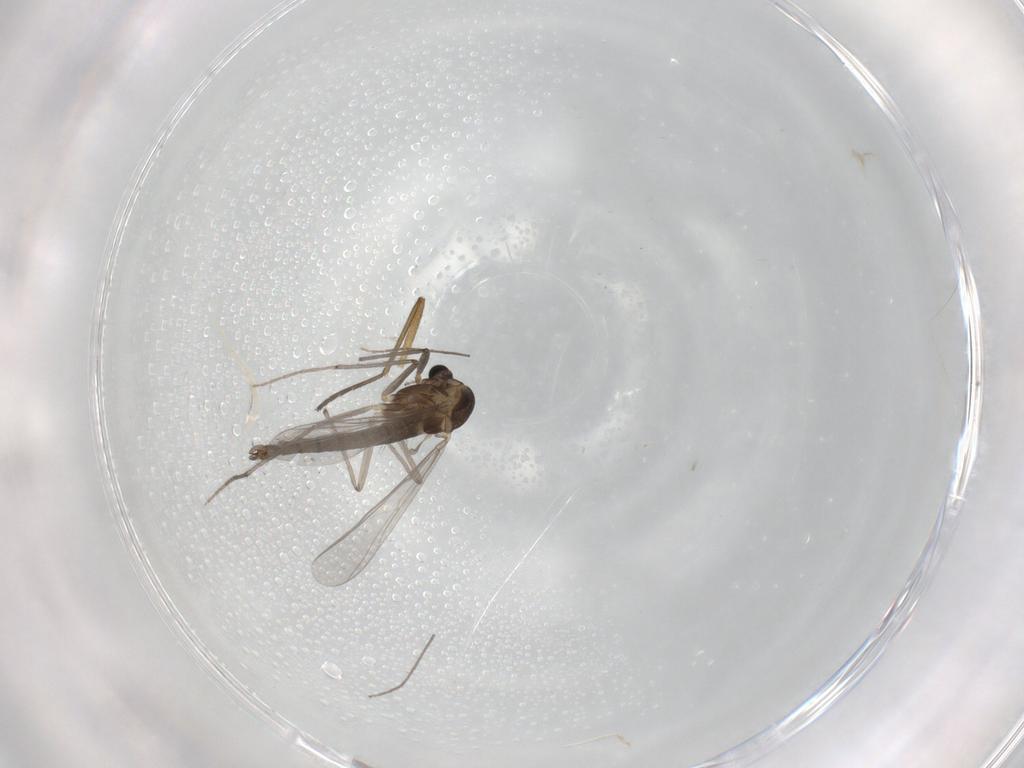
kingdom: Animalia
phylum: Arthropoda
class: Insecta
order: Diptera
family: Chironomidae
